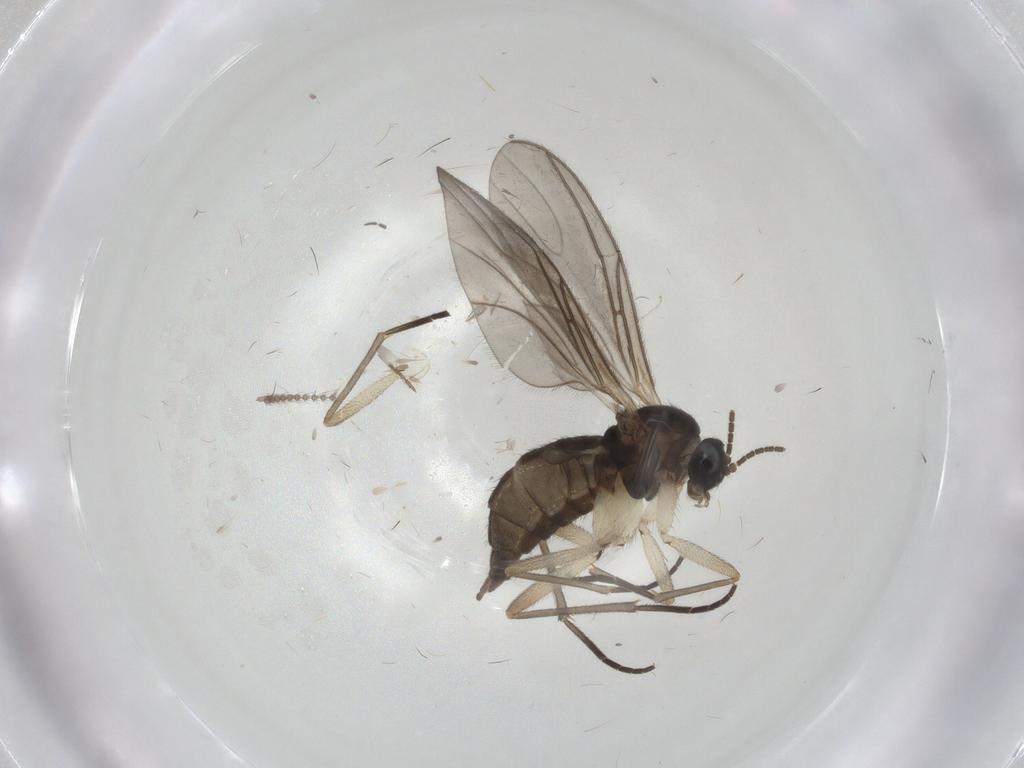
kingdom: Animalia
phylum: Arthropoda
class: Insecta
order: Diptera
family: Cecidomyiidae
